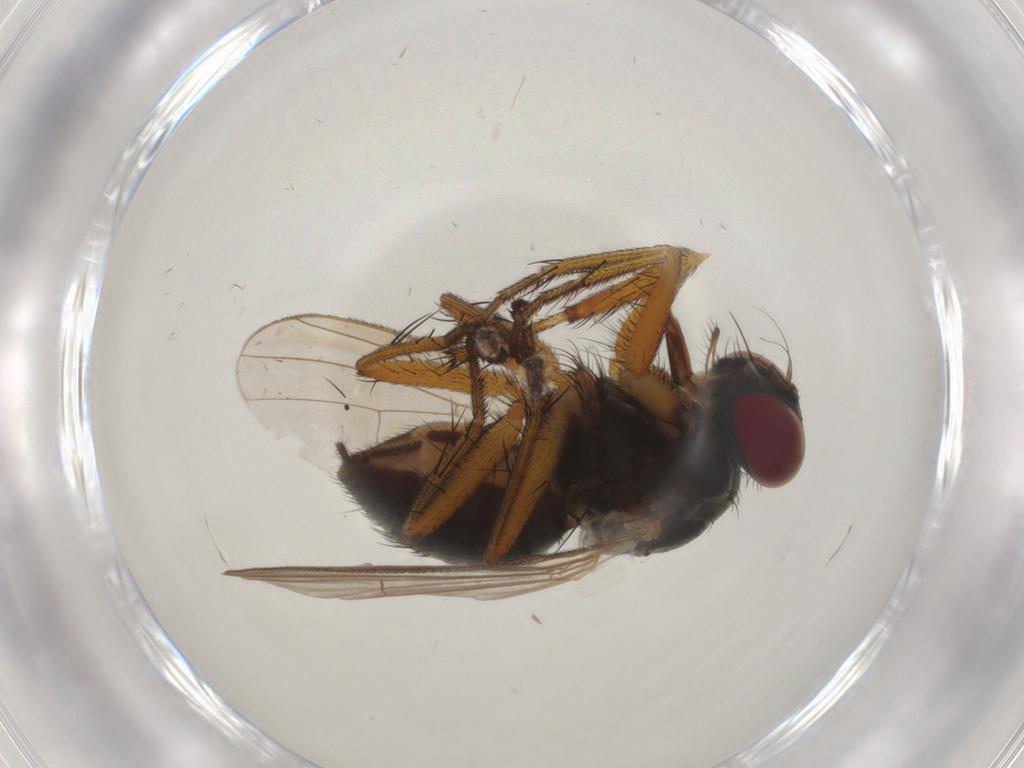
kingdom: Animalia
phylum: Arthropoda
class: Insecta
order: Diptera
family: Muscidae
